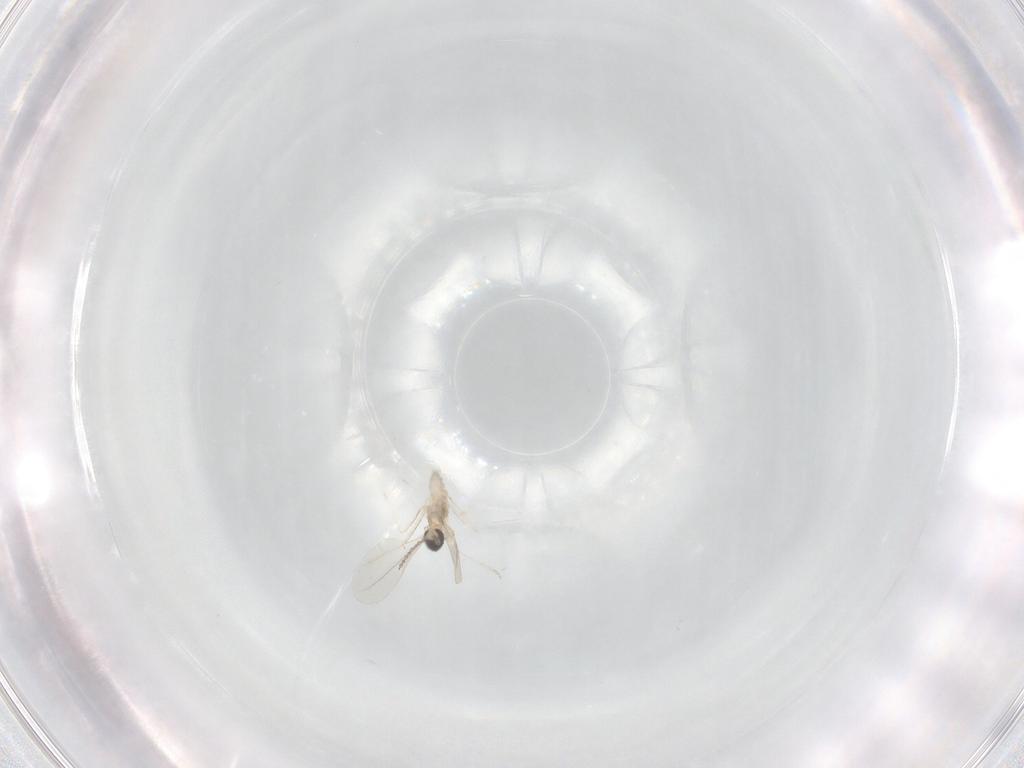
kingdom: Animalia
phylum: Arthropoda
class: Insecta
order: Diptera
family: Cecidomyiidae
